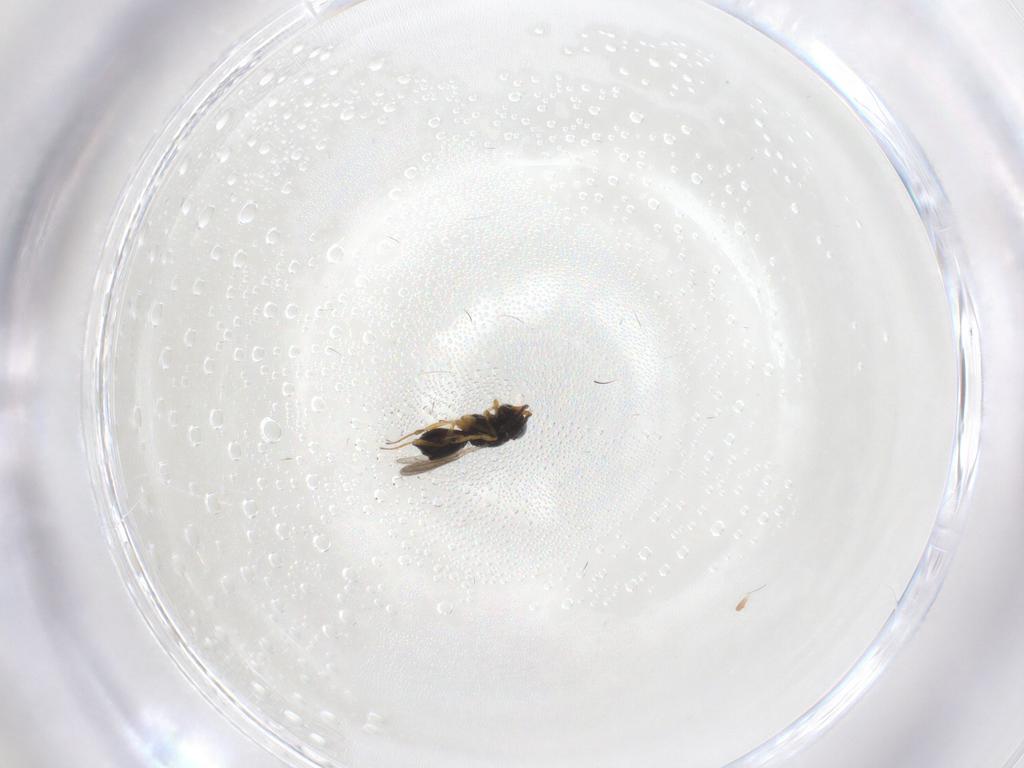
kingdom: Animalia
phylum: Arthropoda
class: Insecta
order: Hymenoptera
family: Scelionidae
